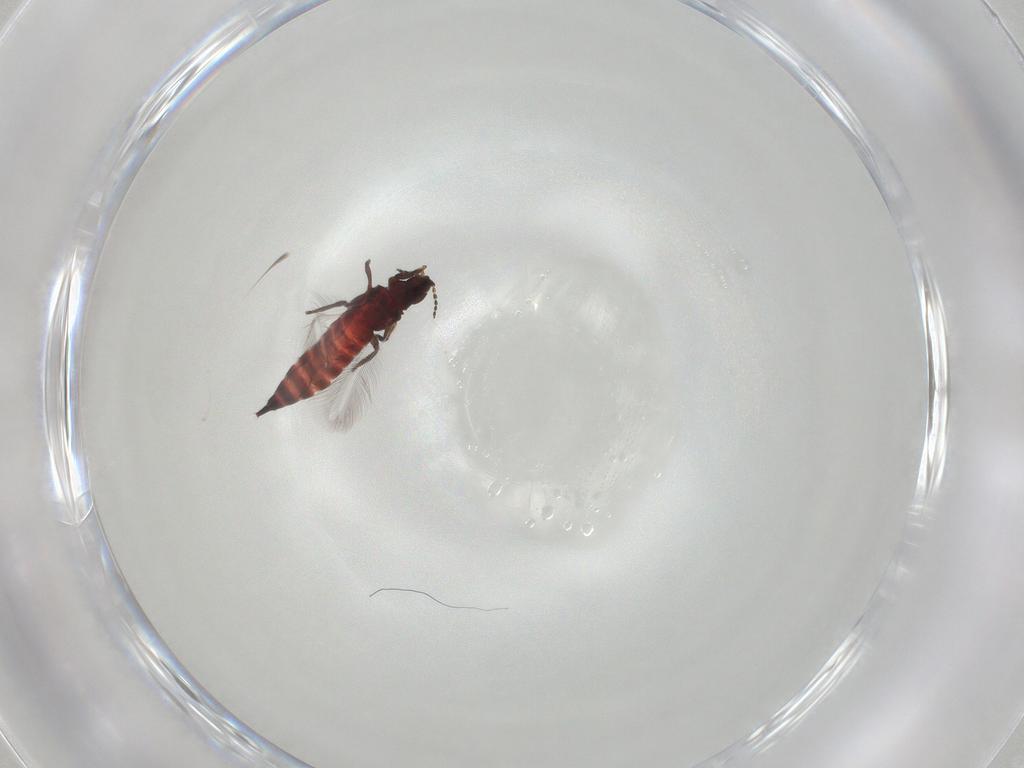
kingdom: Animalia
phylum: Arthropoda
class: Insecta
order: Thysanoptera
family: Phlaeothripidae
